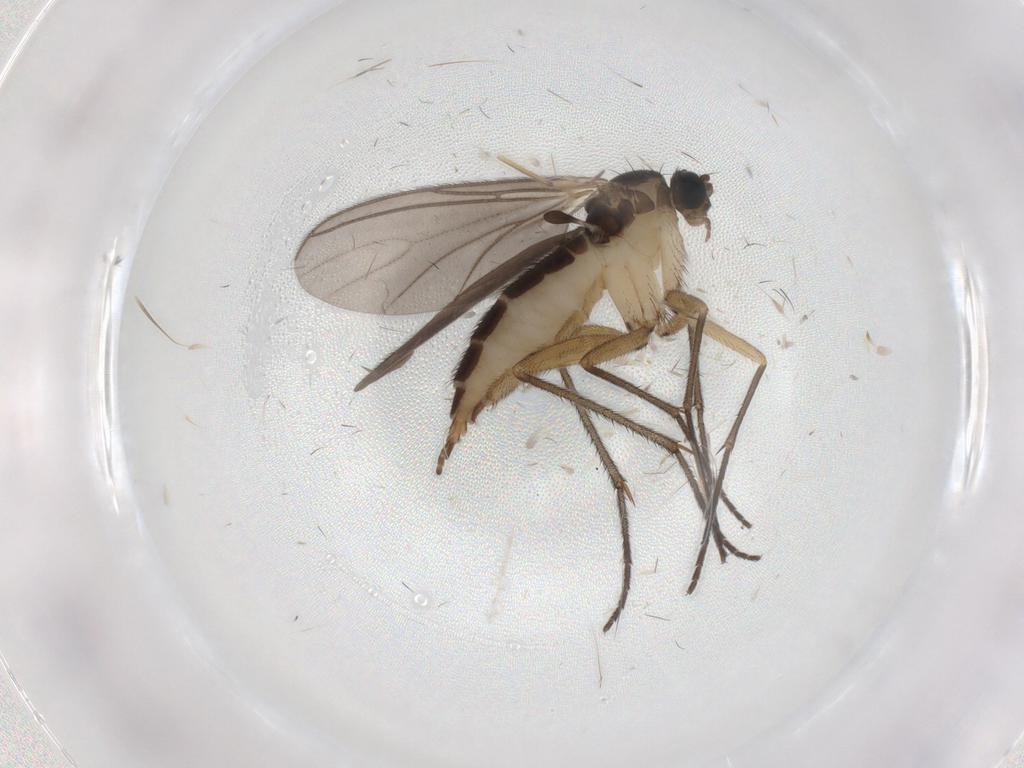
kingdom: Animalia
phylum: Arthropoda
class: Insecta
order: Diptera
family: Sciaridae
